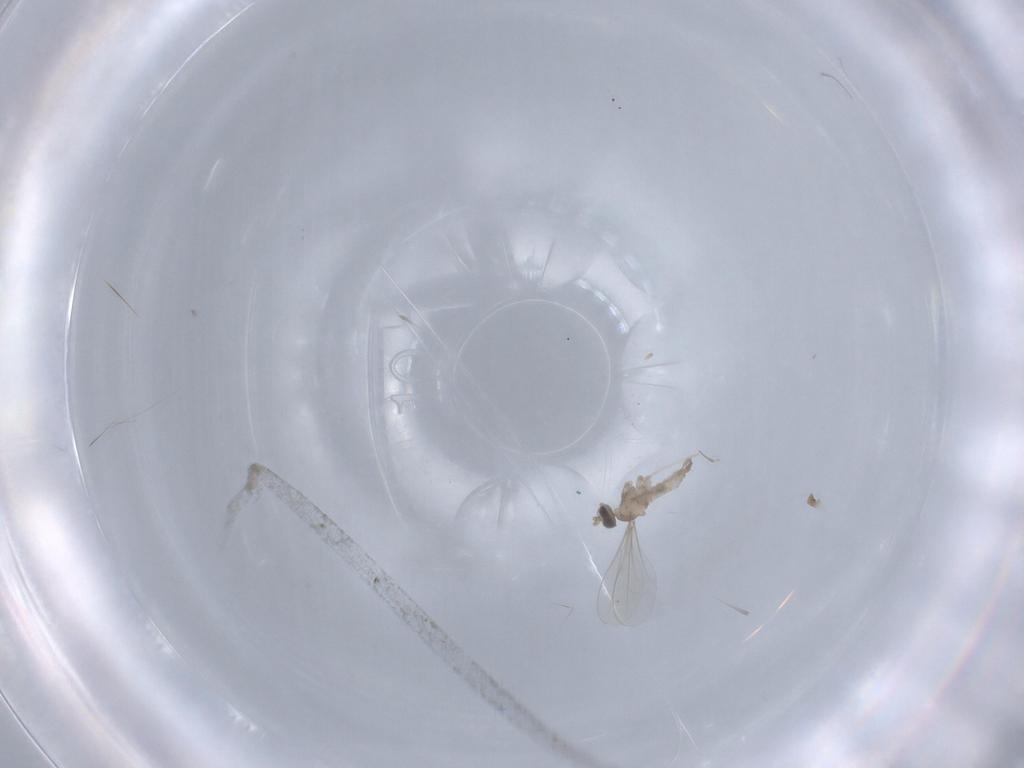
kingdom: Animalia
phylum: Arthropoda
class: Insecta
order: Diptera
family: Cecidomyiidae
